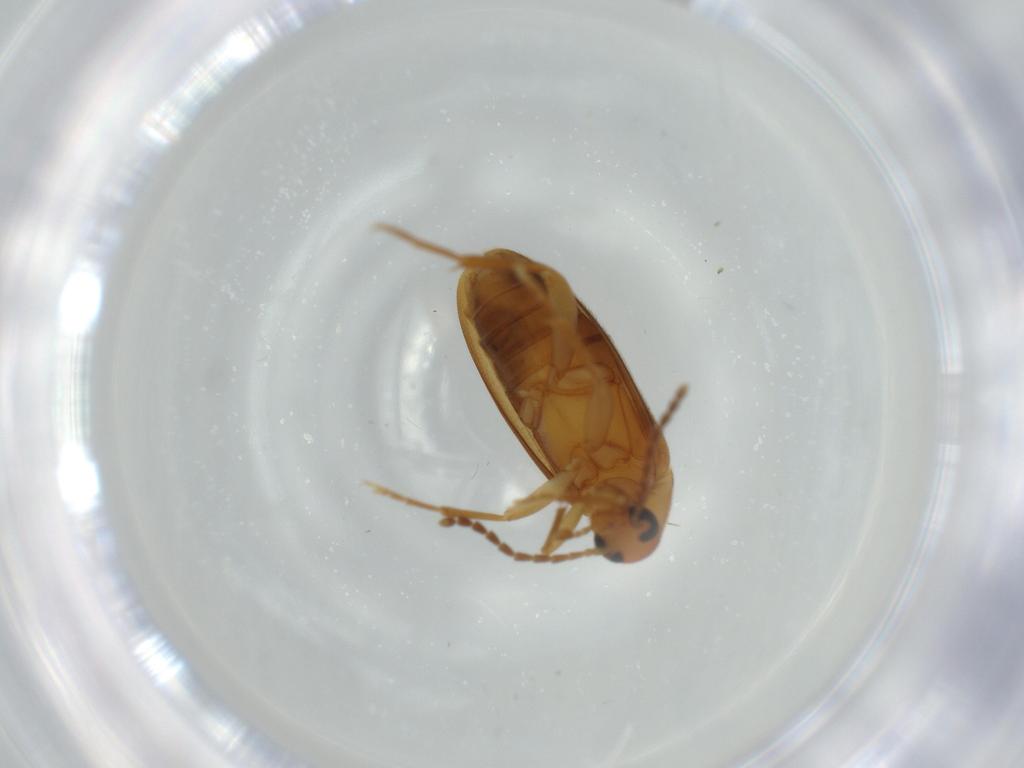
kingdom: Animalia
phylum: Arthropoda
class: Insecta
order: Coleoptera
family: Scraptiidae
